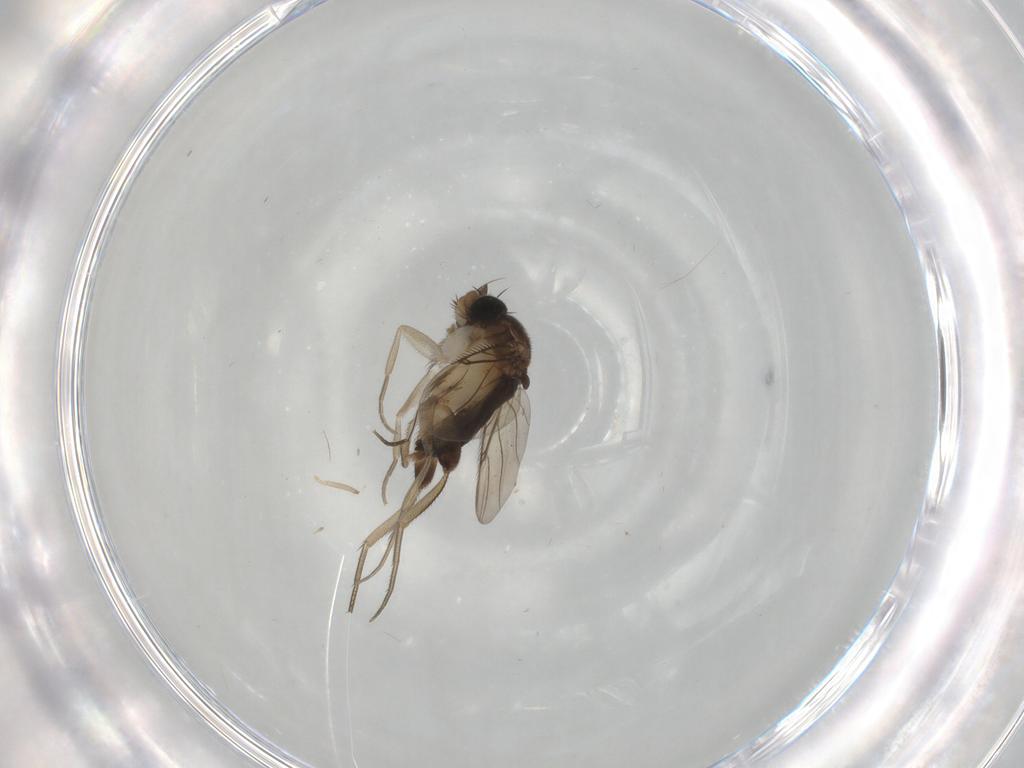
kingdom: Animalia
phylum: Arthropoda
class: Insecta
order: Diptera
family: Phoridae
